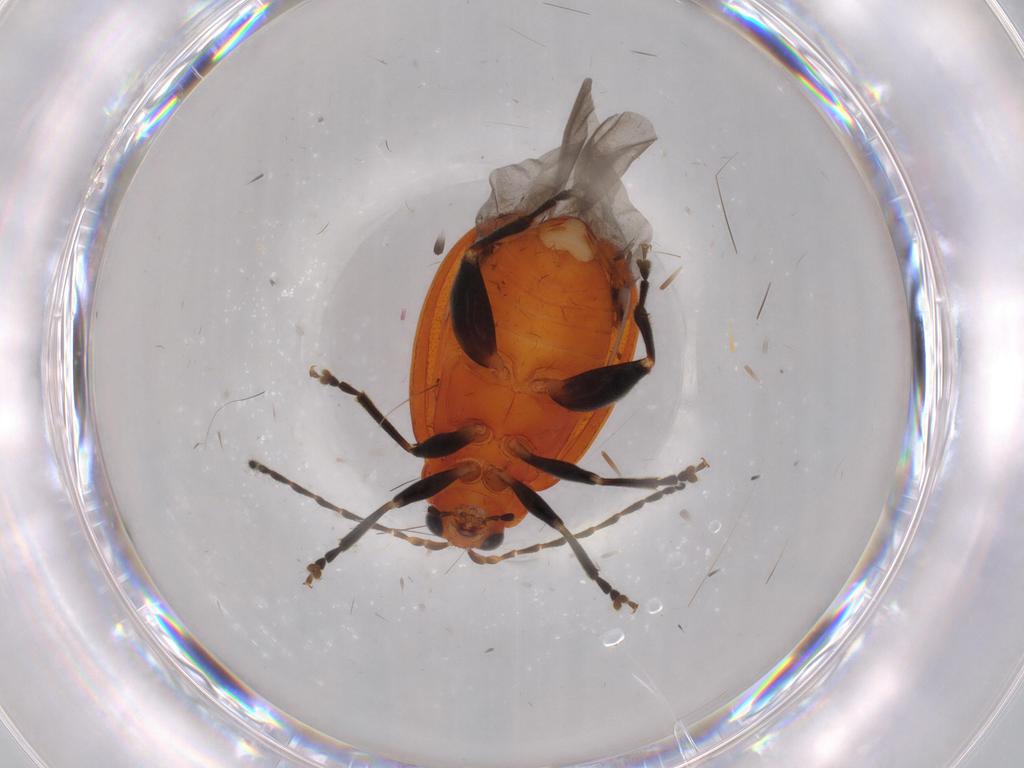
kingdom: Animalia
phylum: Arthropoda
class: Insecta
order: Coleoptera
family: Chrysomelidae
